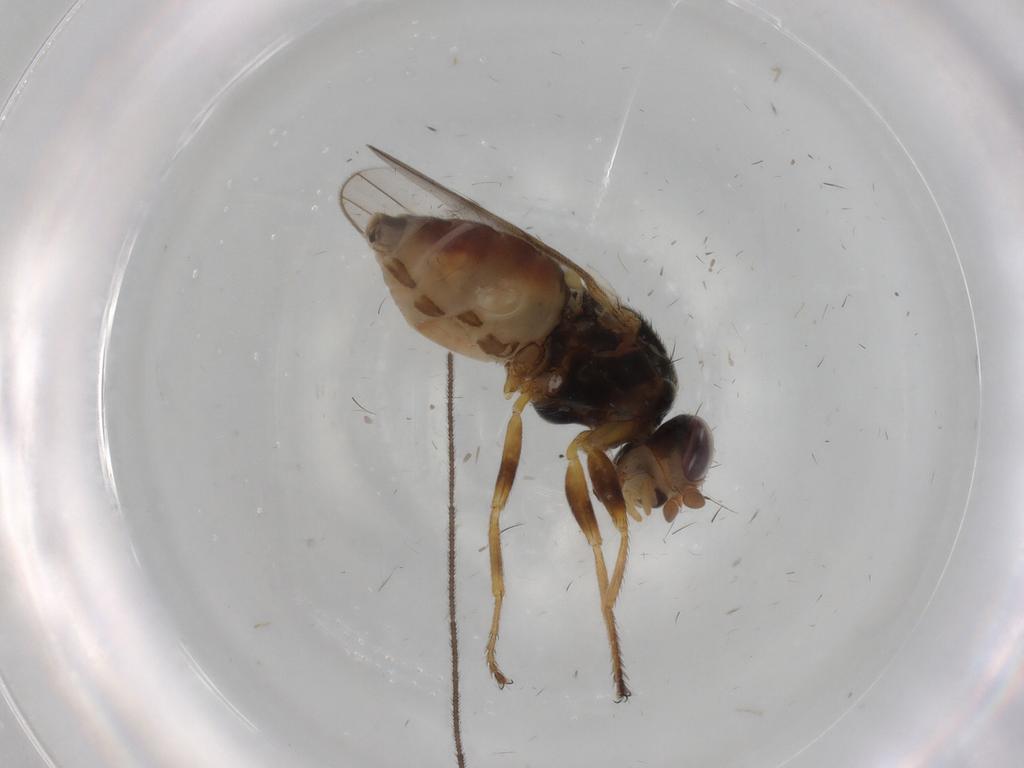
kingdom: Animalia
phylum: Arthropoda
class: Insecta
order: Diptera
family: Chloropidae
